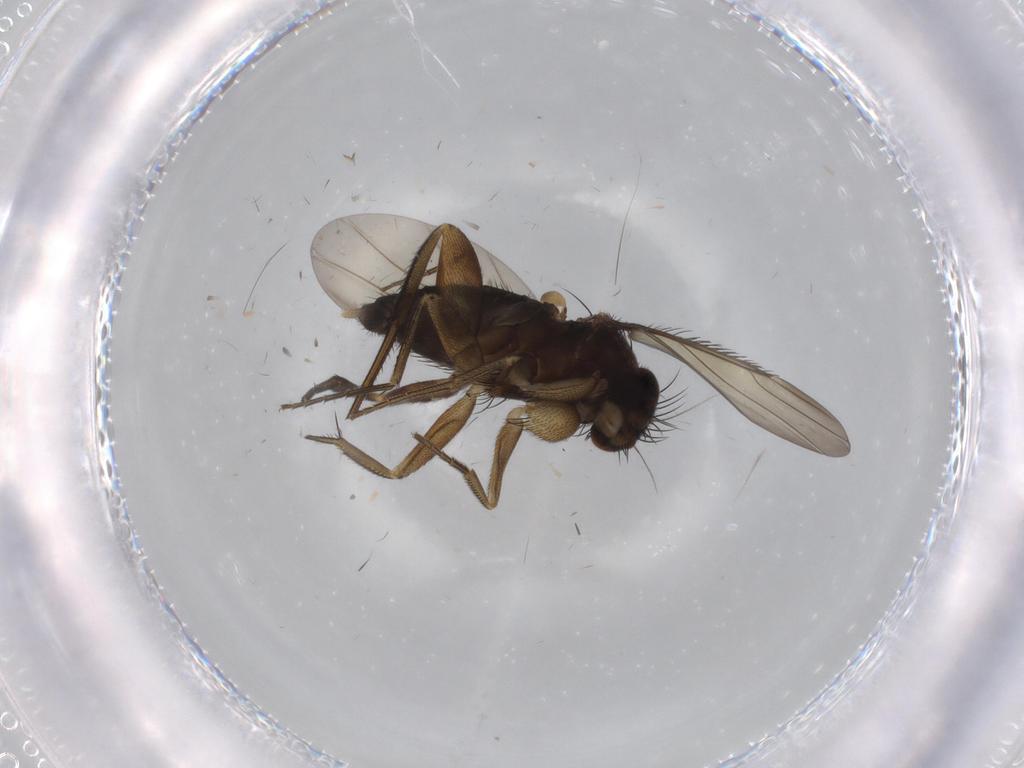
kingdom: Animalia
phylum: Arthropoda
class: Insecta
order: Diptera
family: Phoridae
